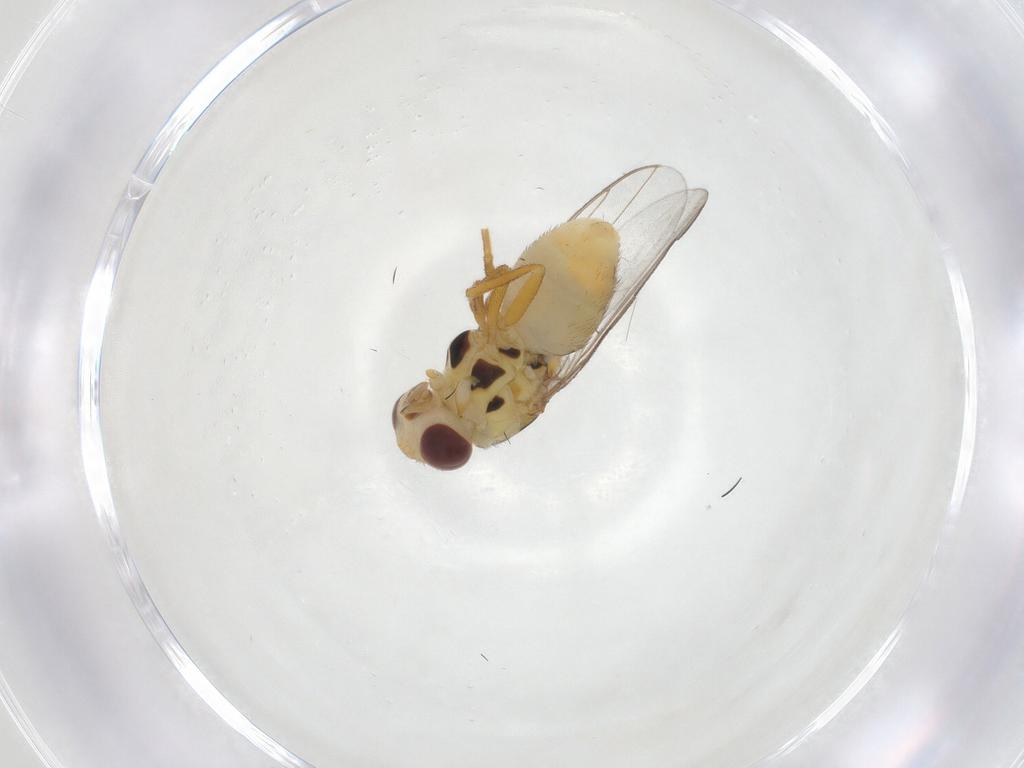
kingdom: Animalia
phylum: Arthropoda
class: Insecta
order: Diptera
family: Chloropidae
